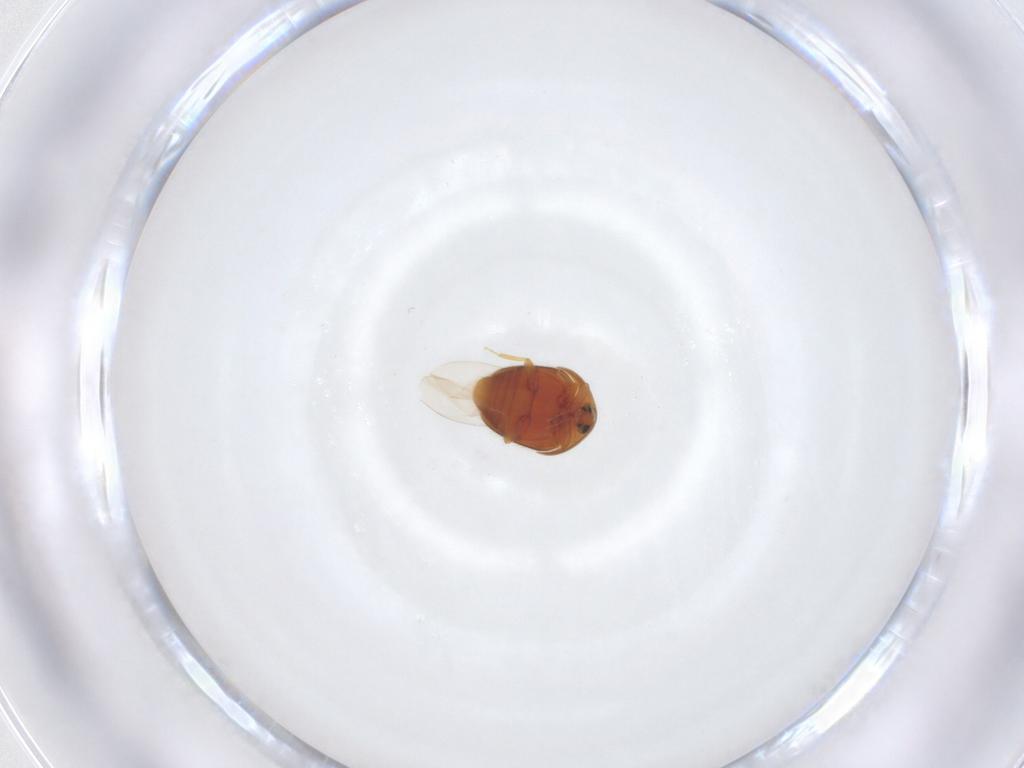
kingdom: Animalia
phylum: Arthropoda
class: Insecta
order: Coleoptera
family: Corylophidae
